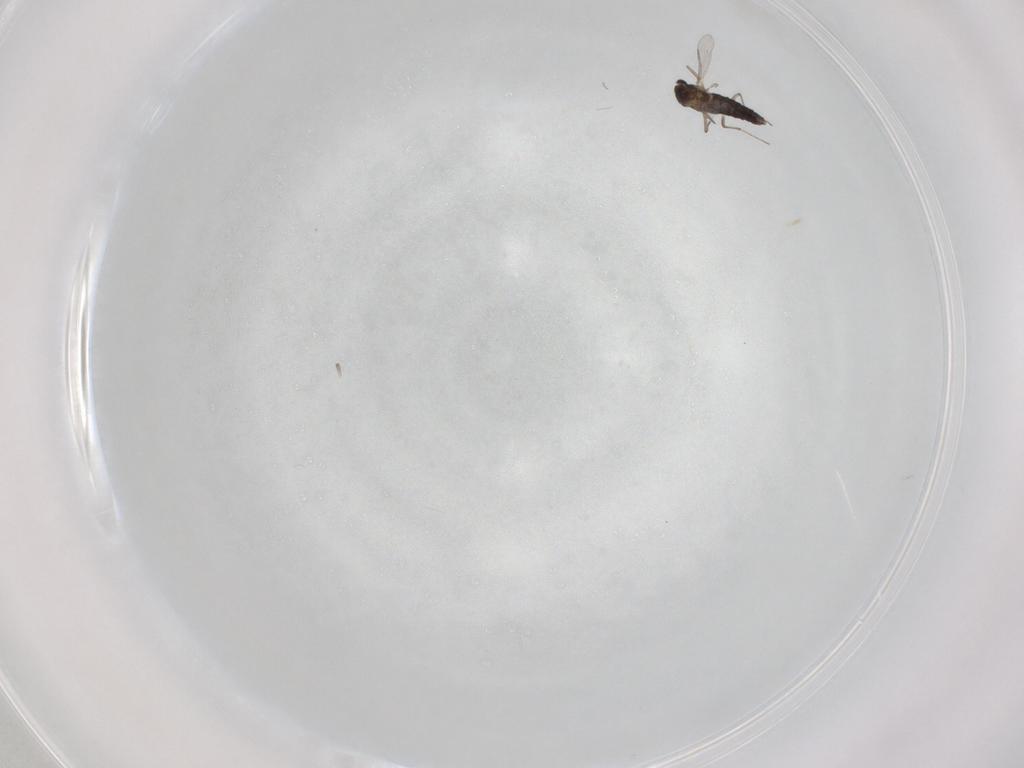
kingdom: Animalia
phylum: Arthropoda
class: Insecta
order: Diptera
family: Chironomidae
